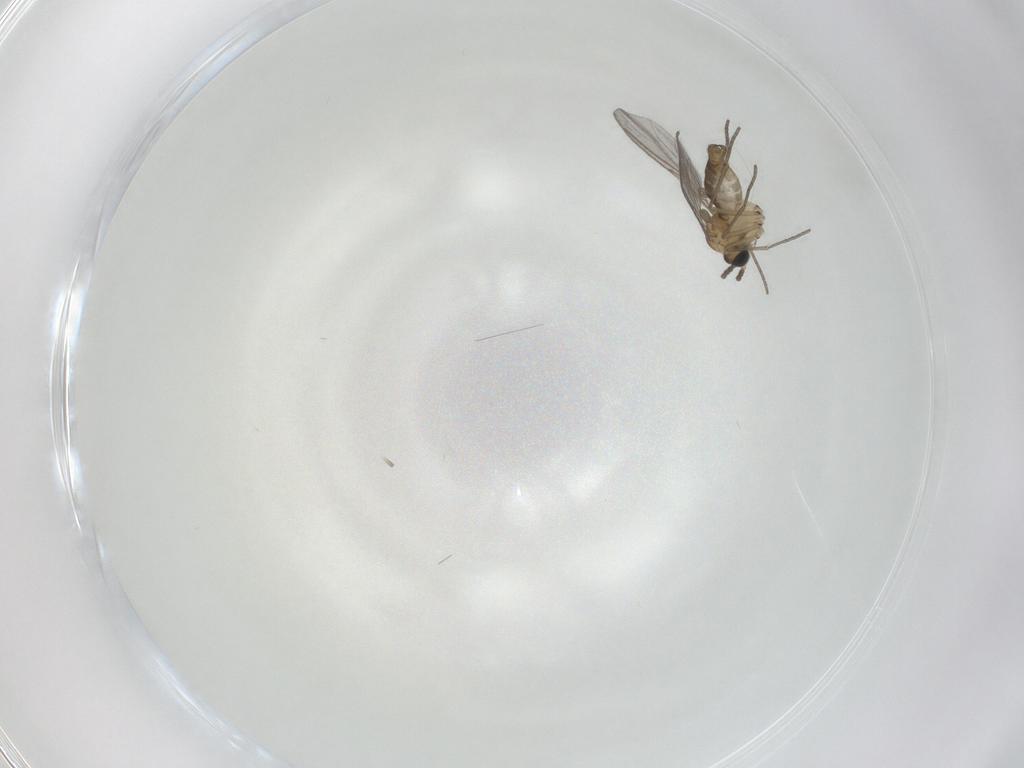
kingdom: Animalia
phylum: Arthropoda
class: Insecta
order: Diptera
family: Sciaridae
